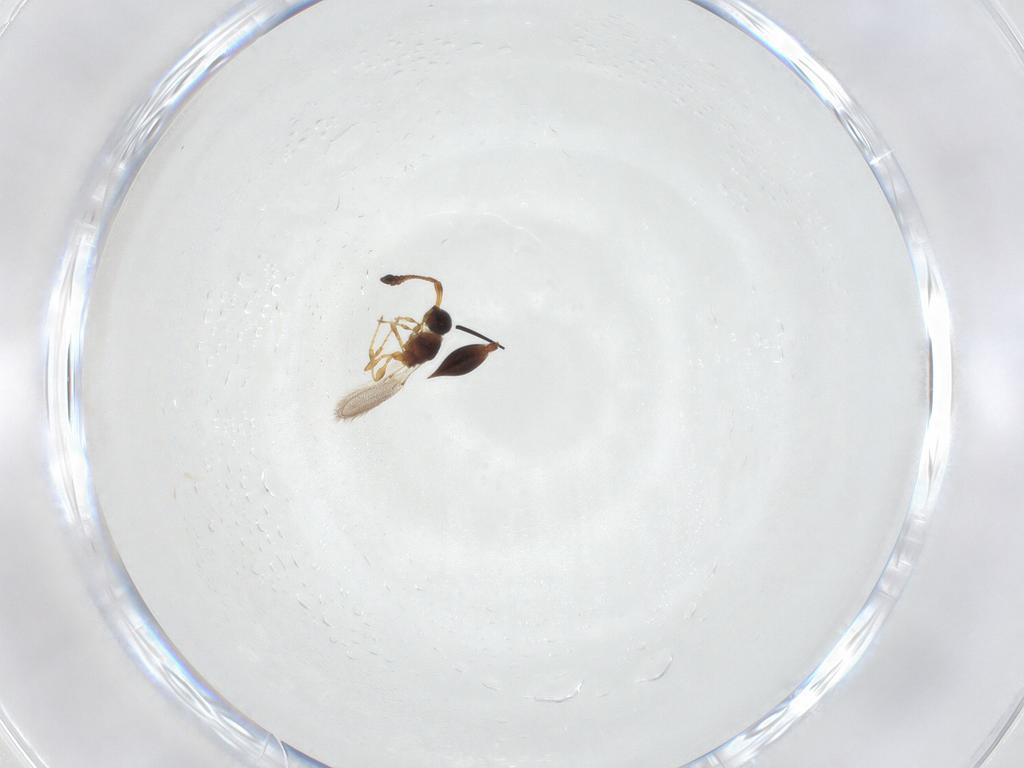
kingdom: Animalia
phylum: Arthropoda
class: Insecta
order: Hymenoptera
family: Diapriidae
